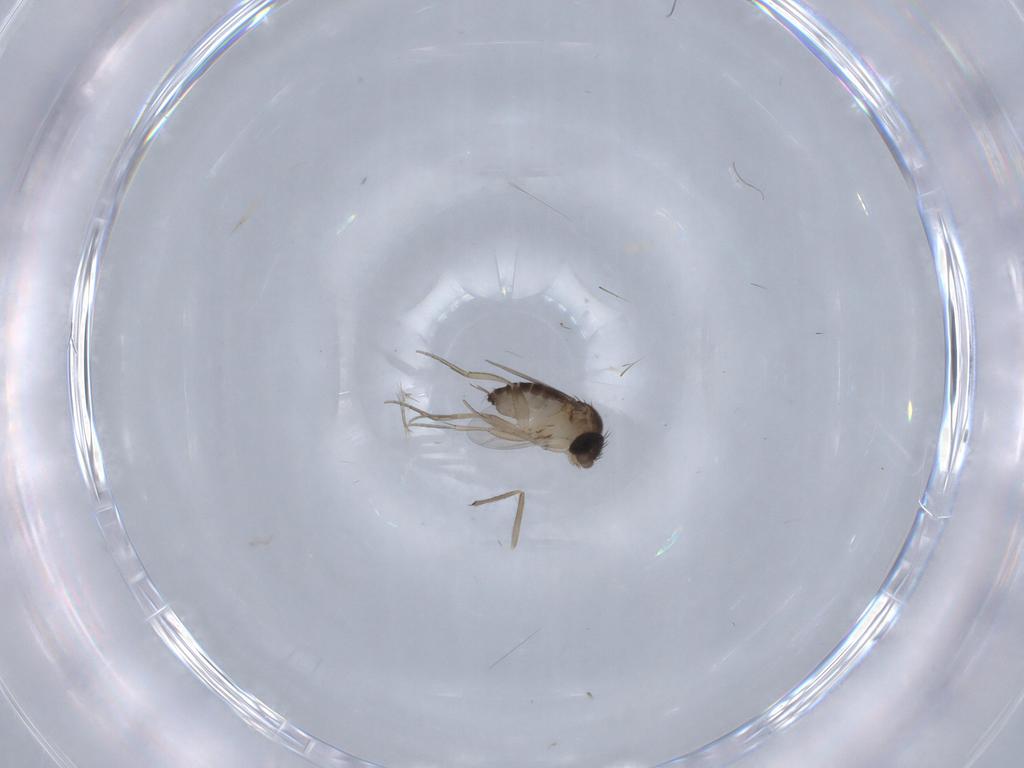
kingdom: Animalia
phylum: Arthropoda
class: Insecta
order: Diptera
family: Phoridae
